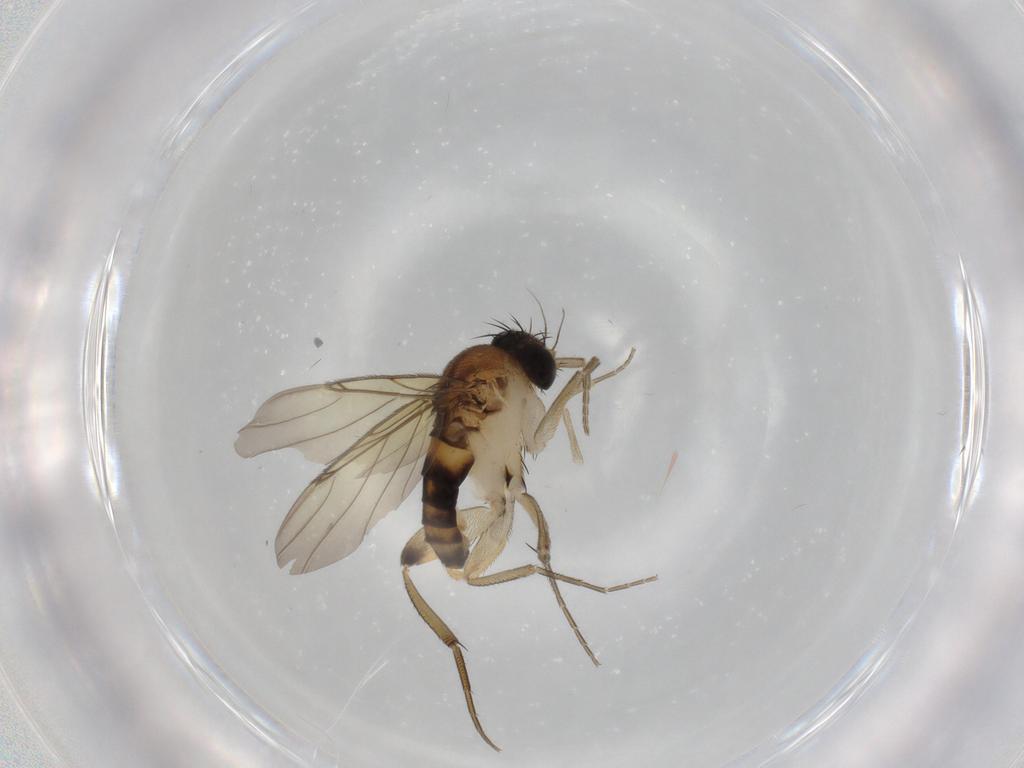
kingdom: Animalia
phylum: Arthropoda
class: Insecta
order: Diptera
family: Phoridae
